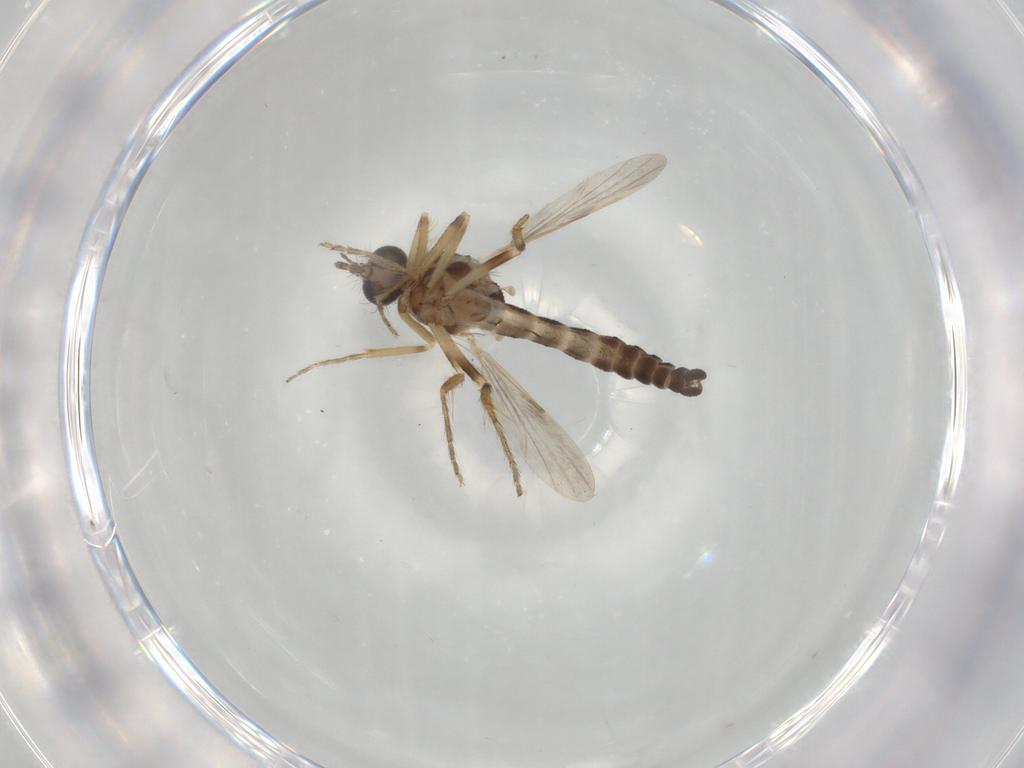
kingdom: Animalia
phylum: Arthropoda
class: Insecta
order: Diptera
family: Ceratopogonidae
